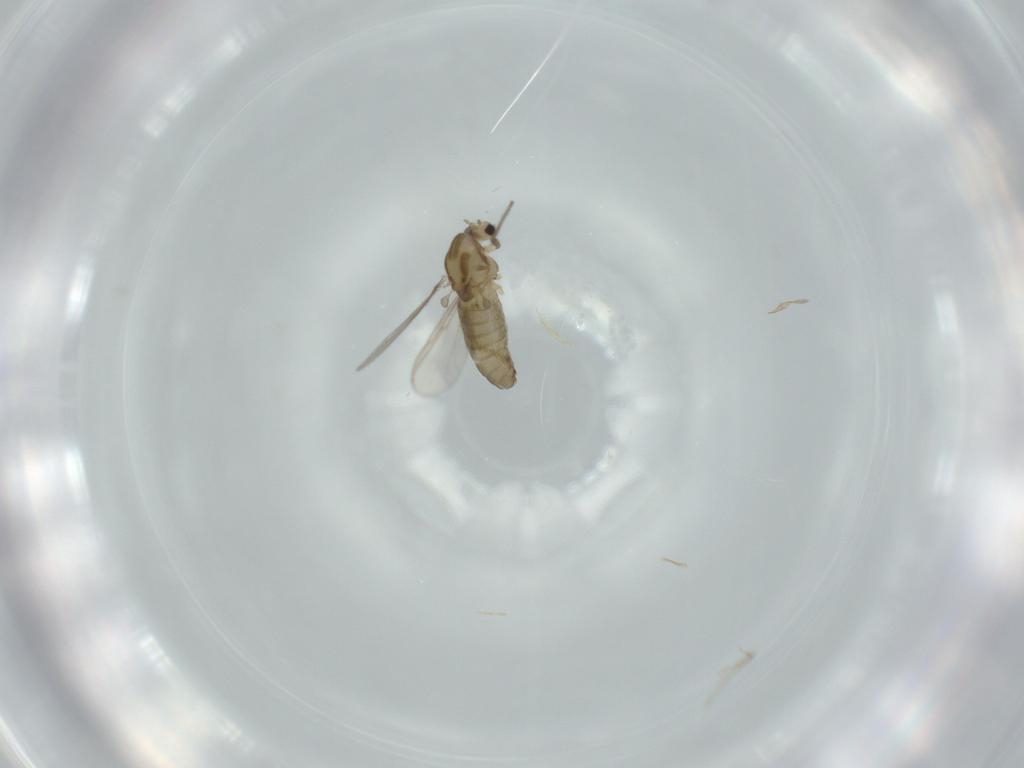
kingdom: Animalia
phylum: Arthropoda
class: Insecta
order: Diptera
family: Chironomidae
